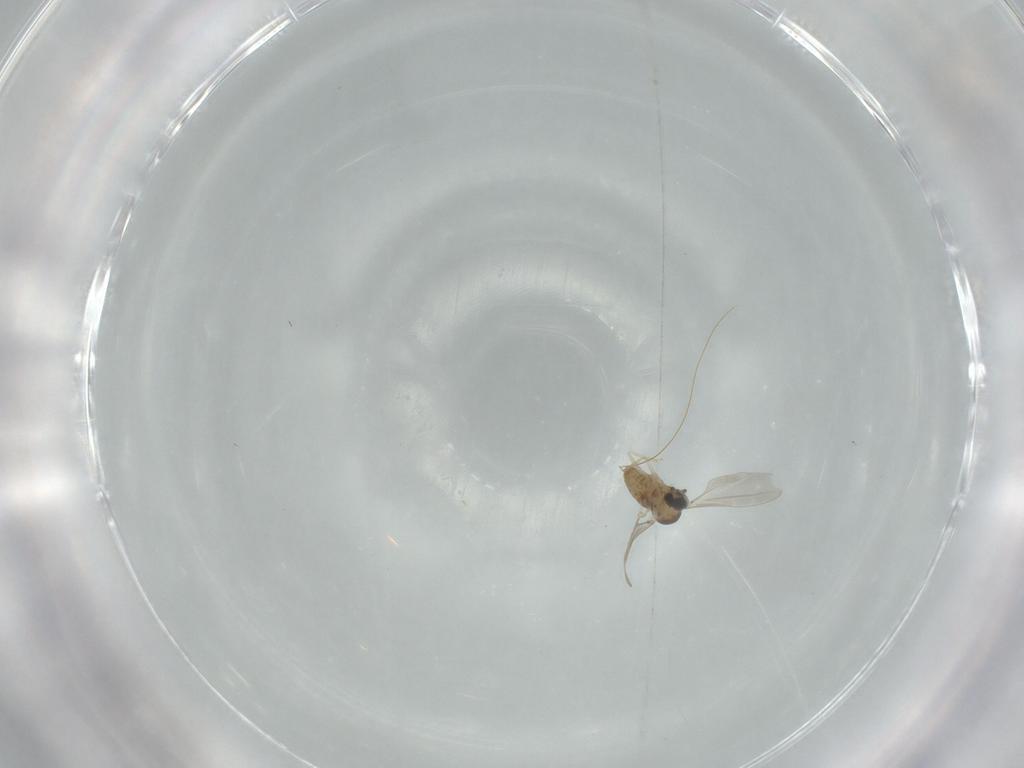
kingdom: Animalia
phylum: Arthropoda
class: Insecta
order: Diptera
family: Cecidomyiidae
